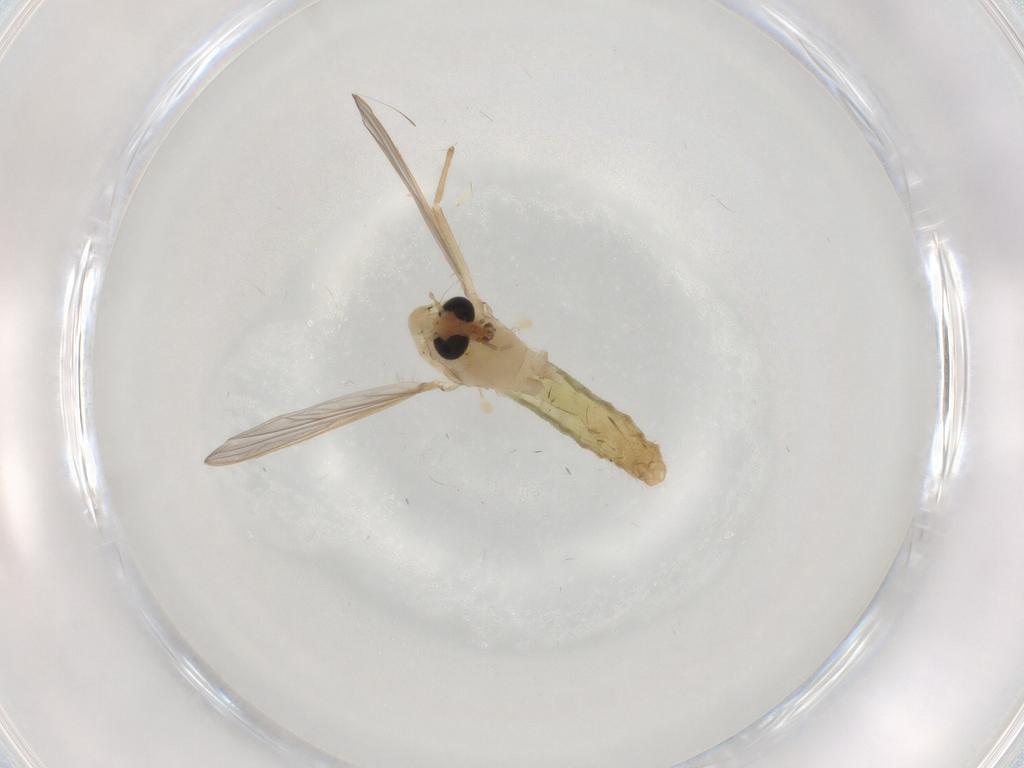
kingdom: Animalia
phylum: Arthropoda
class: Insecta
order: Diptera
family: Chironomidae
